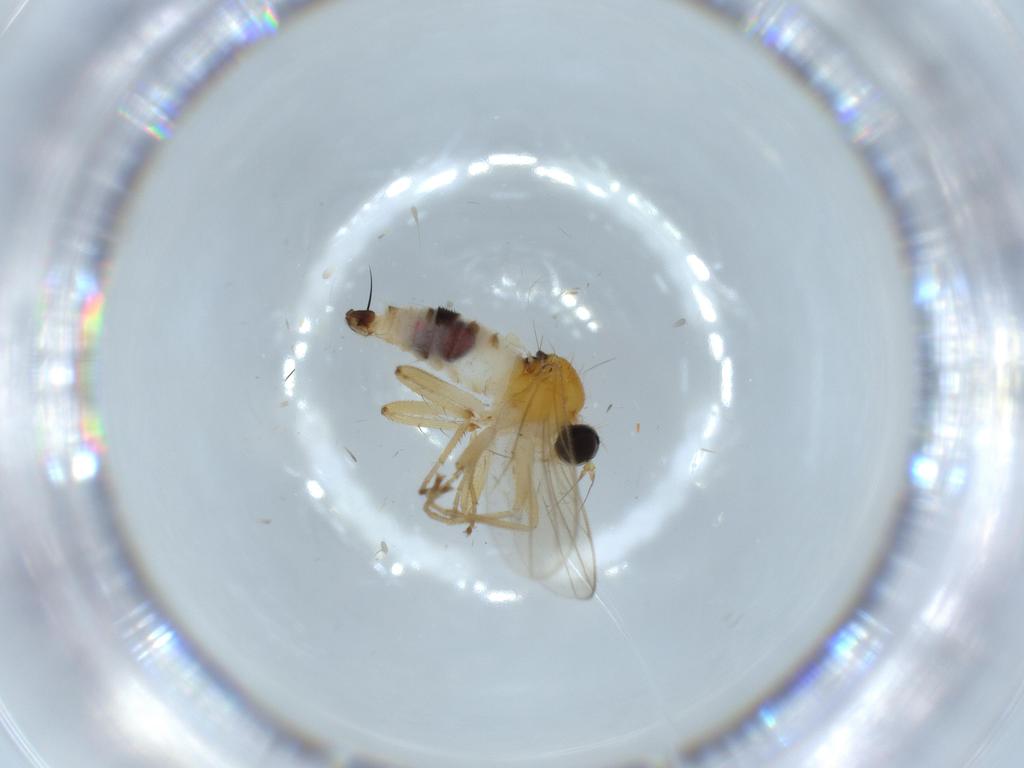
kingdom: Animalia
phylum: Arthropoda
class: Insecta
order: Diptera
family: Hybotidae
